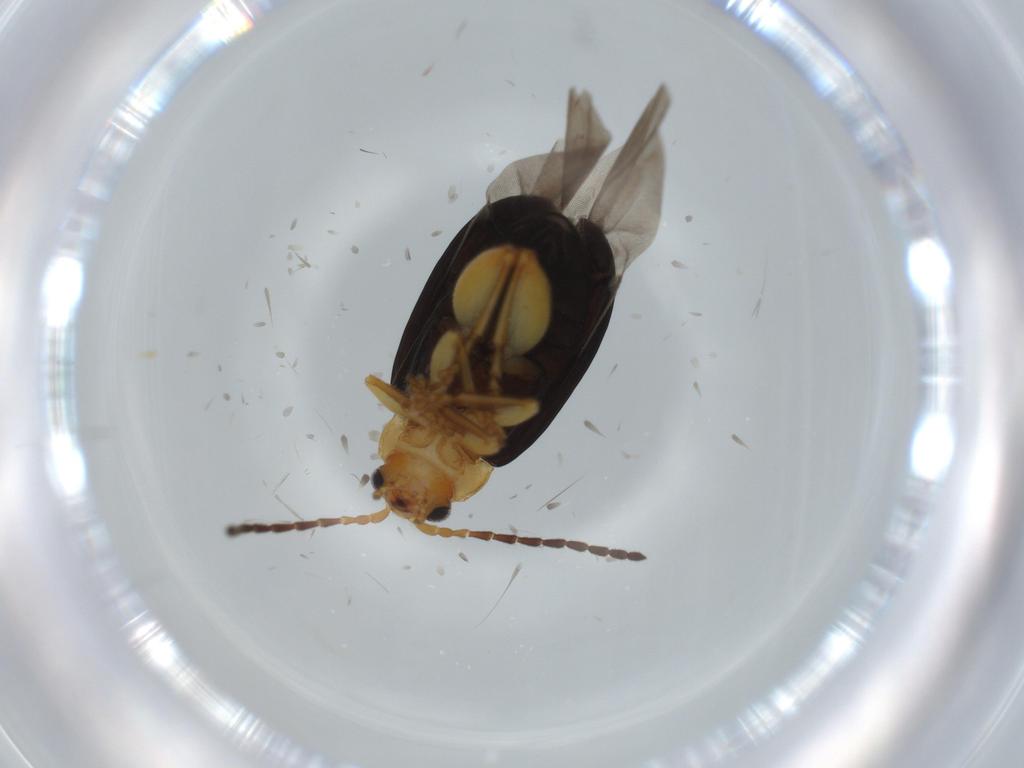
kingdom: Animalia
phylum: Arthropoda
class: Insecta
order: Coleoptera
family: Chrysomelidae
